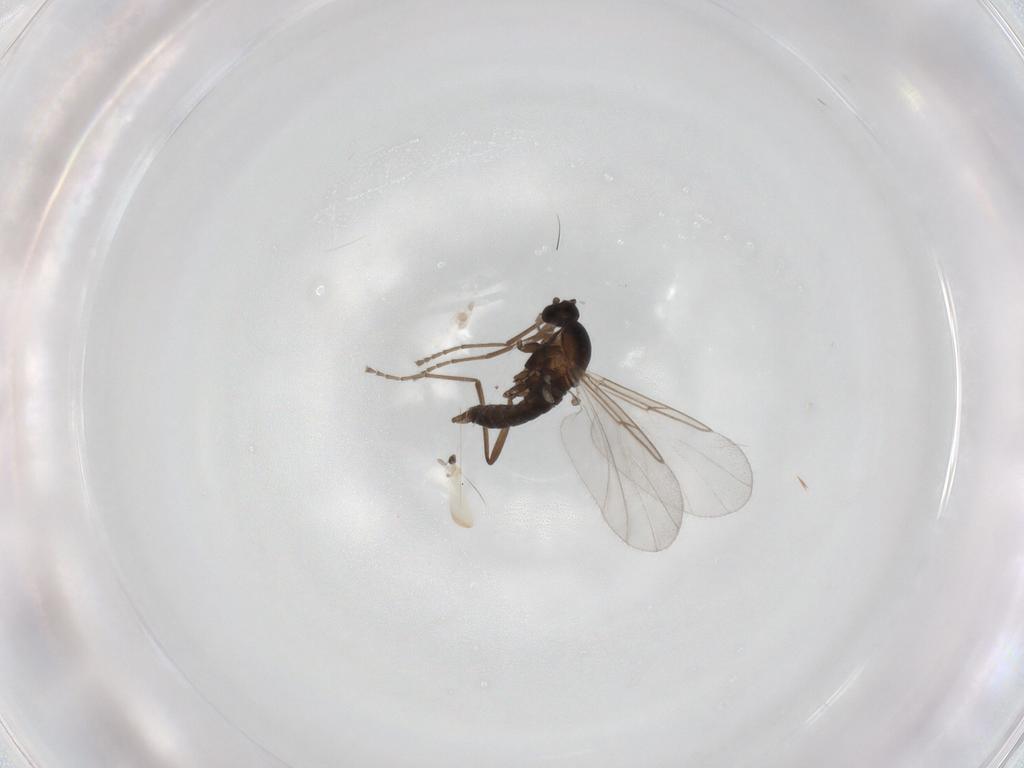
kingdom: Animalia
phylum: Arthropoda
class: Insecta
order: Diptera
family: Cecidomyiidae
